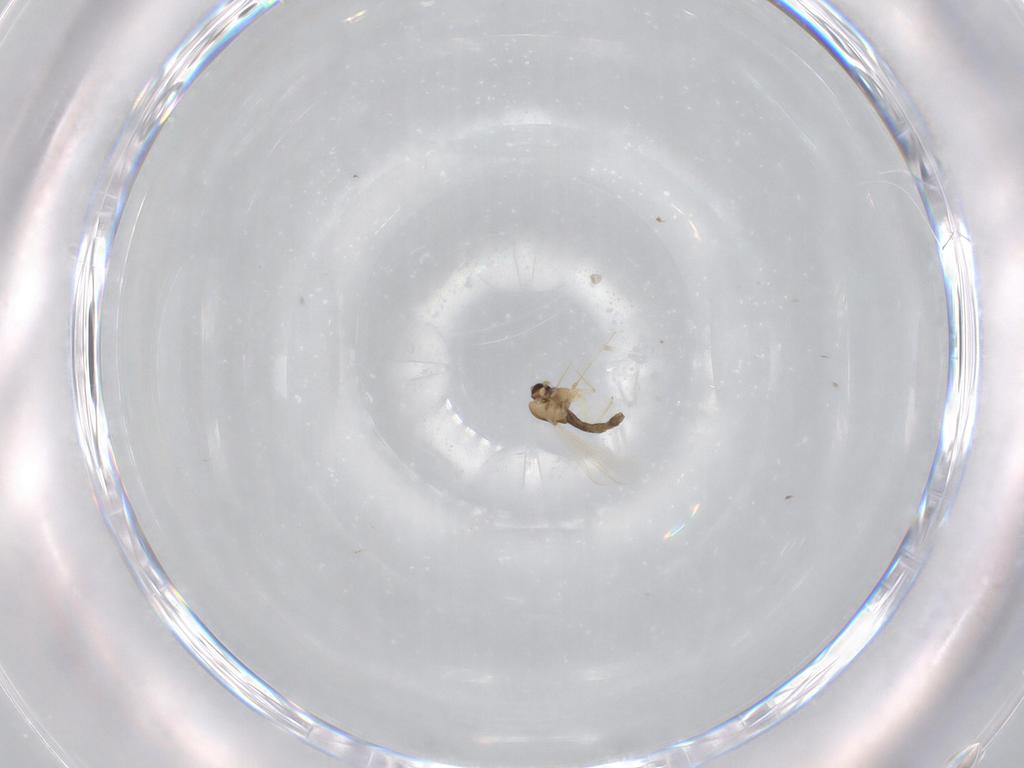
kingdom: Animalia
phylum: Arthropoda
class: Insecta
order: Diptera
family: Chironomidae
